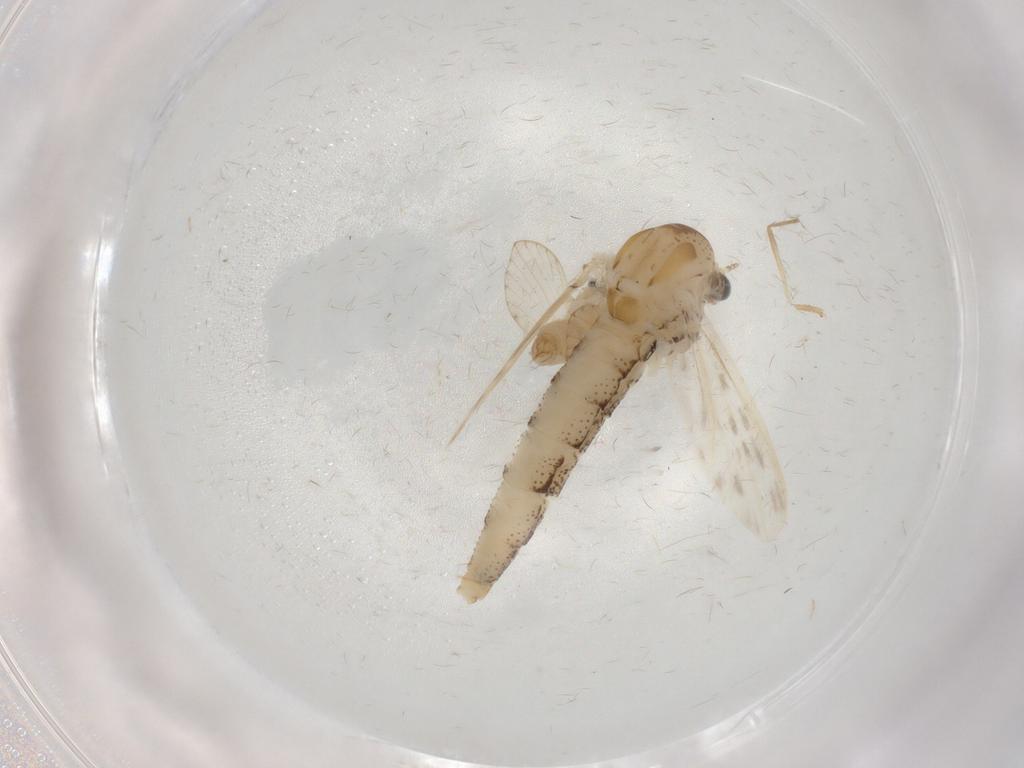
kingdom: Animalia
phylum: Arthropoda
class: Insecta
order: Diptera
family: Chaoboridae
